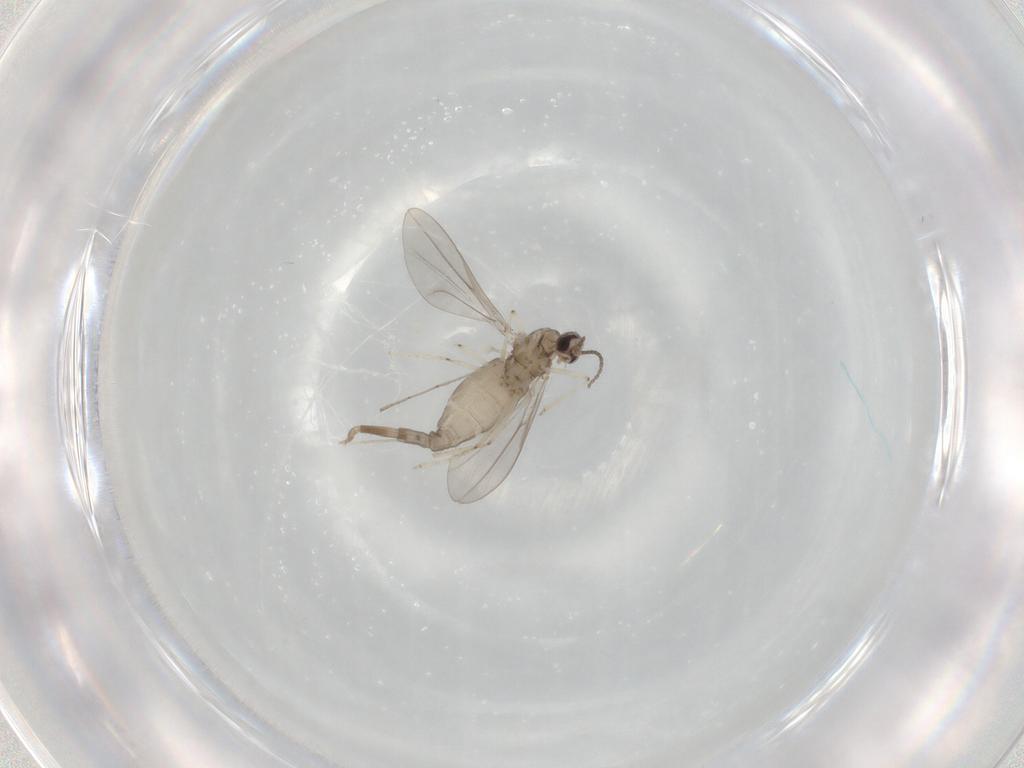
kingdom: Animalia
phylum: Arthropoda
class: Insecta
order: Diptera
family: Cecidomyiidae
